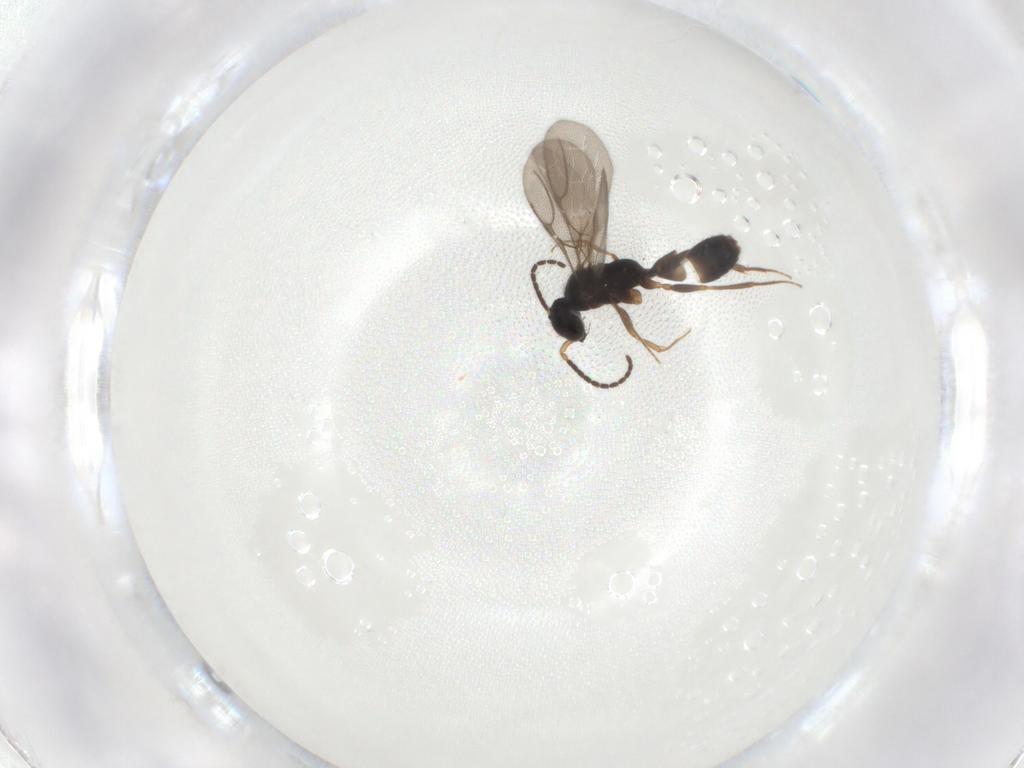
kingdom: Animalia
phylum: Arthropoda
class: Insecta
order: Hymenoptera
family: Bethylidae
